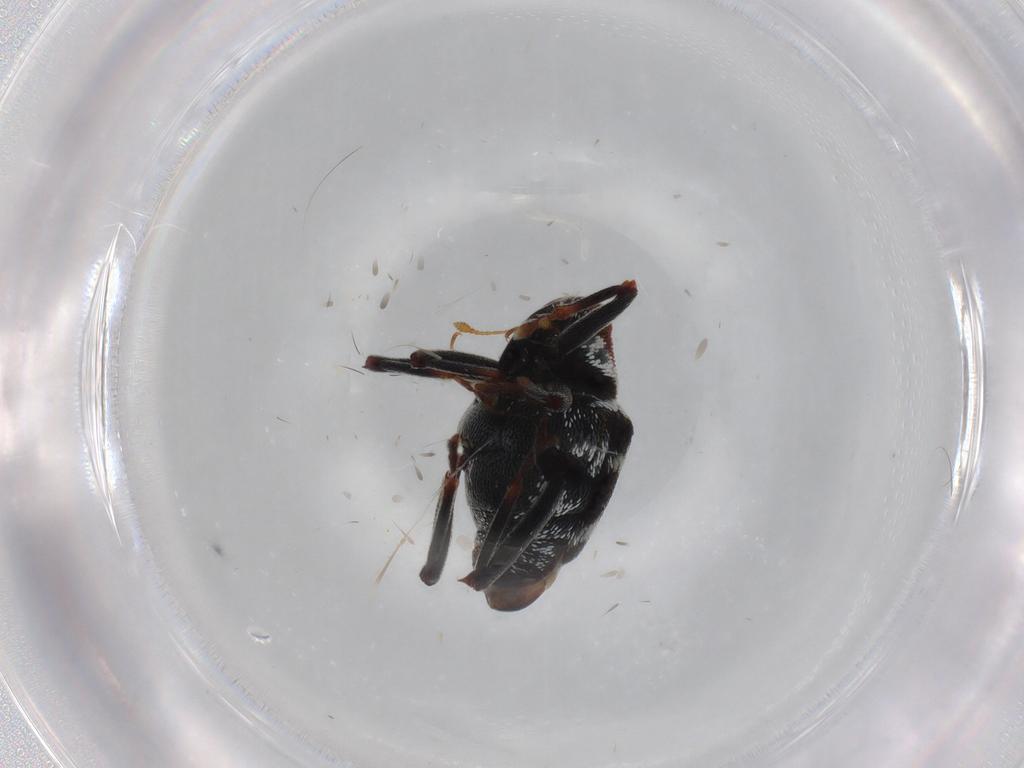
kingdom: Animalia
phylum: Arthropoda
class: Insecta
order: Coleoptera
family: Curculionidae
